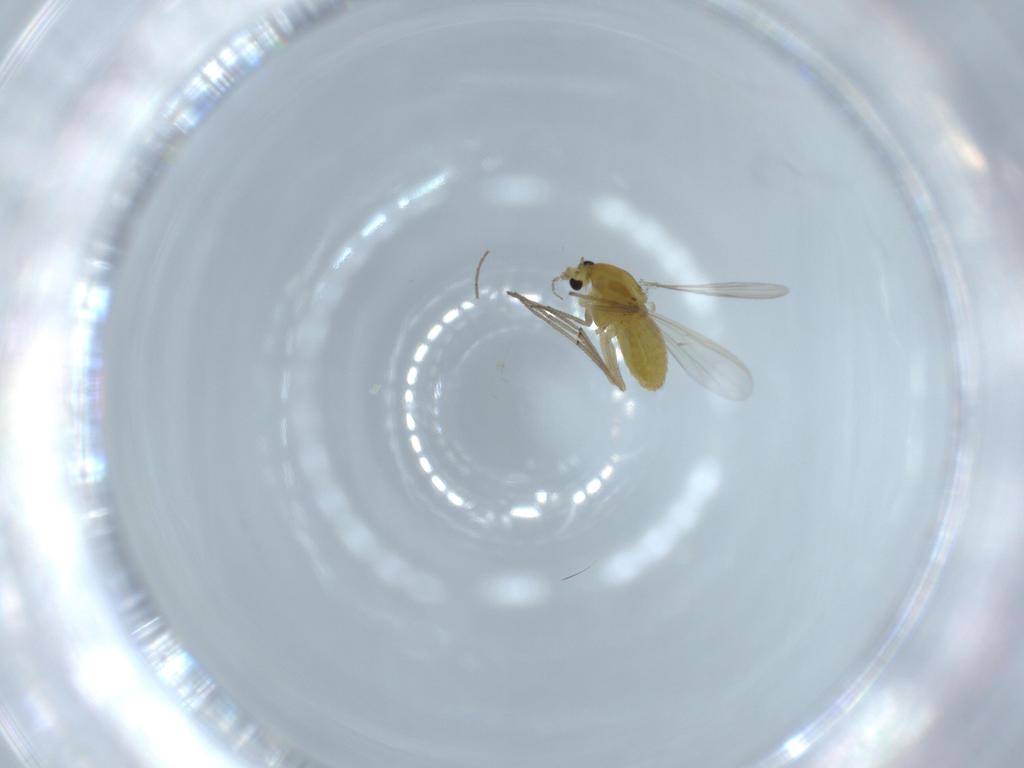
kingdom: Animalia
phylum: Arthropoda
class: Insecta
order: Diptera
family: Chironomidae
